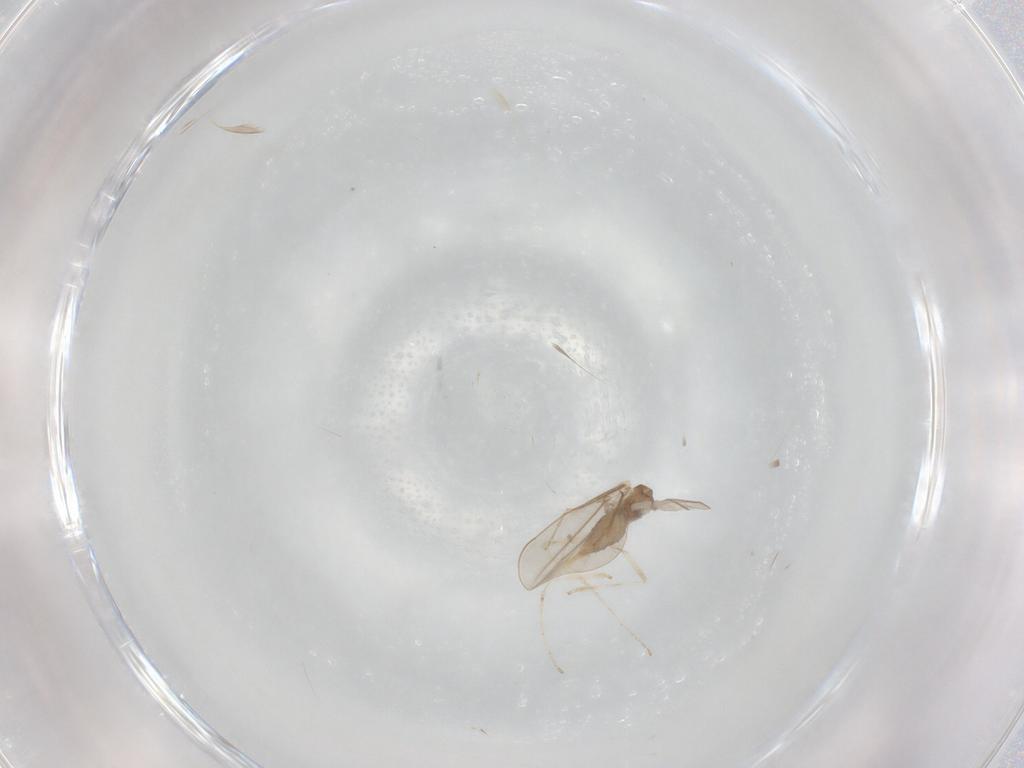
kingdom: Animalia
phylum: Arthropoda
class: Insecta
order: Diptera
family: Cecidomyiidae
